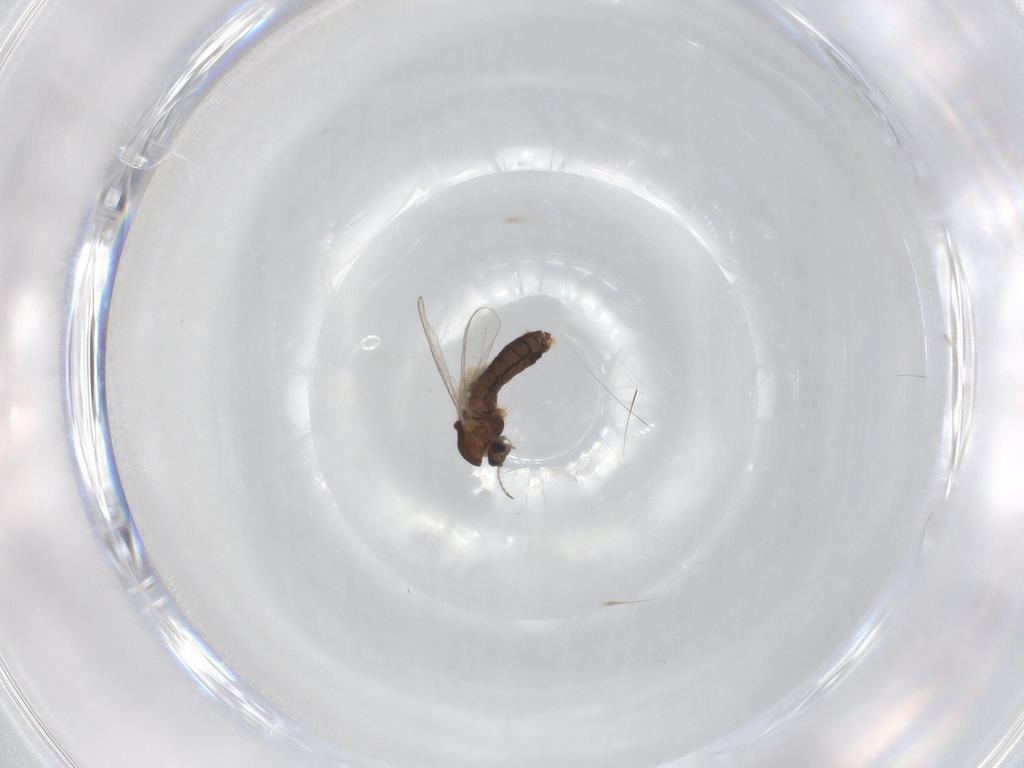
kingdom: Animalia
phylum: Arthropoda
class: Insecta
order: Diptera
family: Chironomidae
